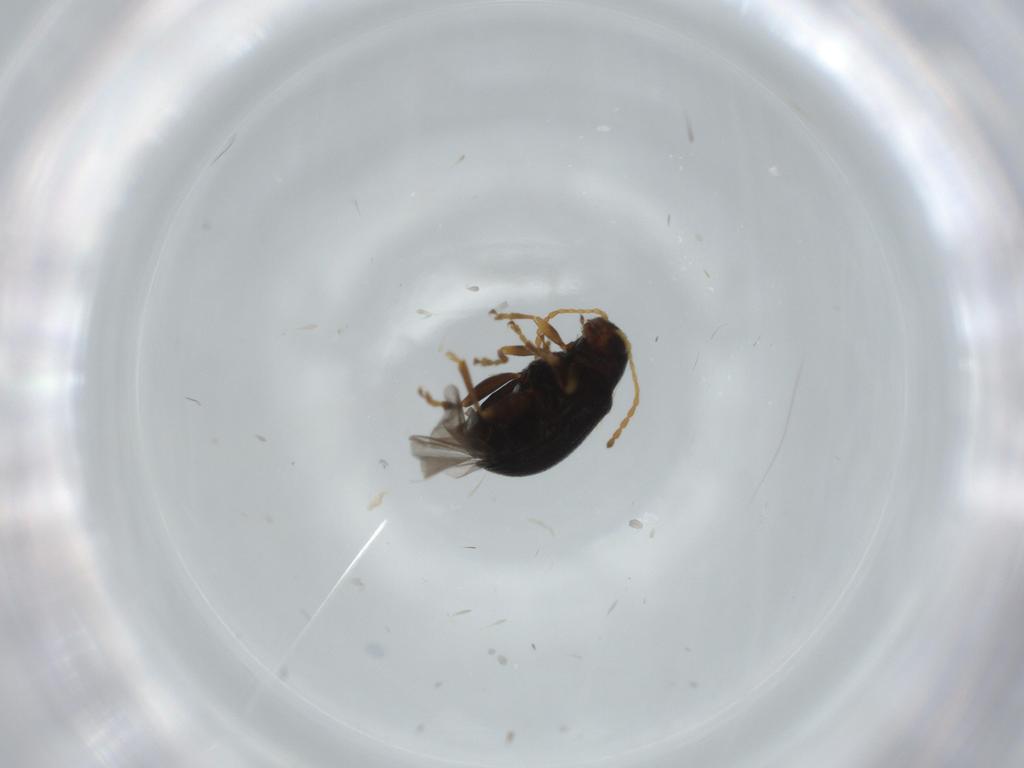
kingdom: Animalia
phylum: Arthropoda
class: Insecta
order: Coleoptera
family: Chrysomelidae
